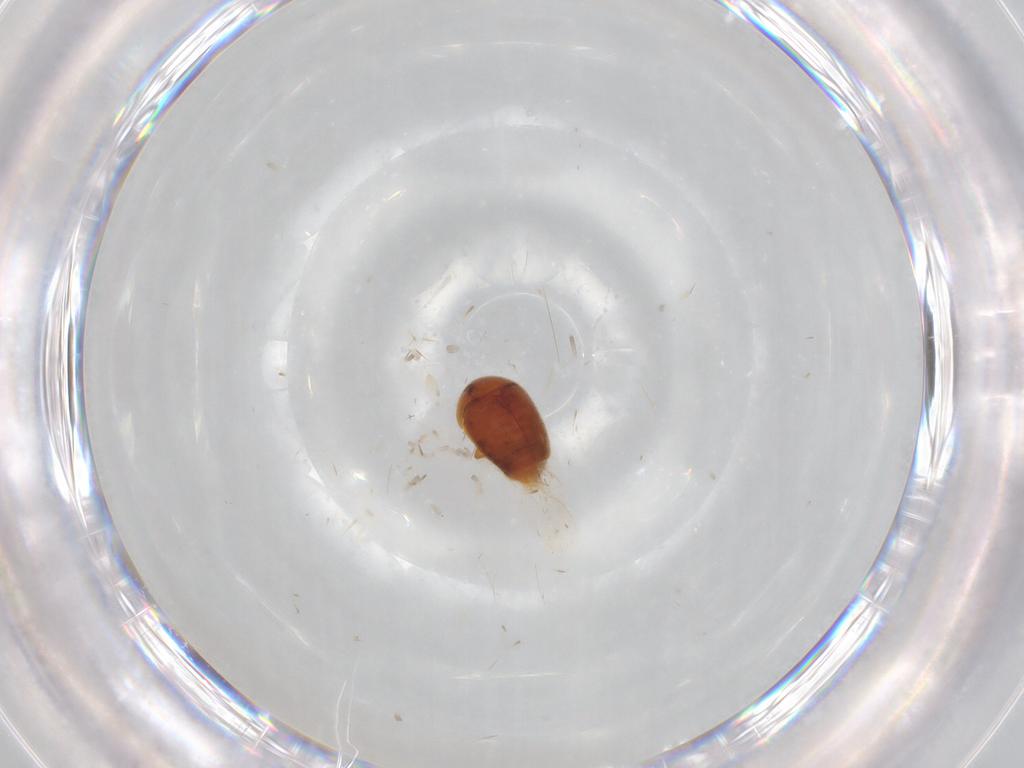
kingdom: Animalia
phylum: Arthropoda
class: Insecta
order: Coleoptera
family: Corylophidae
